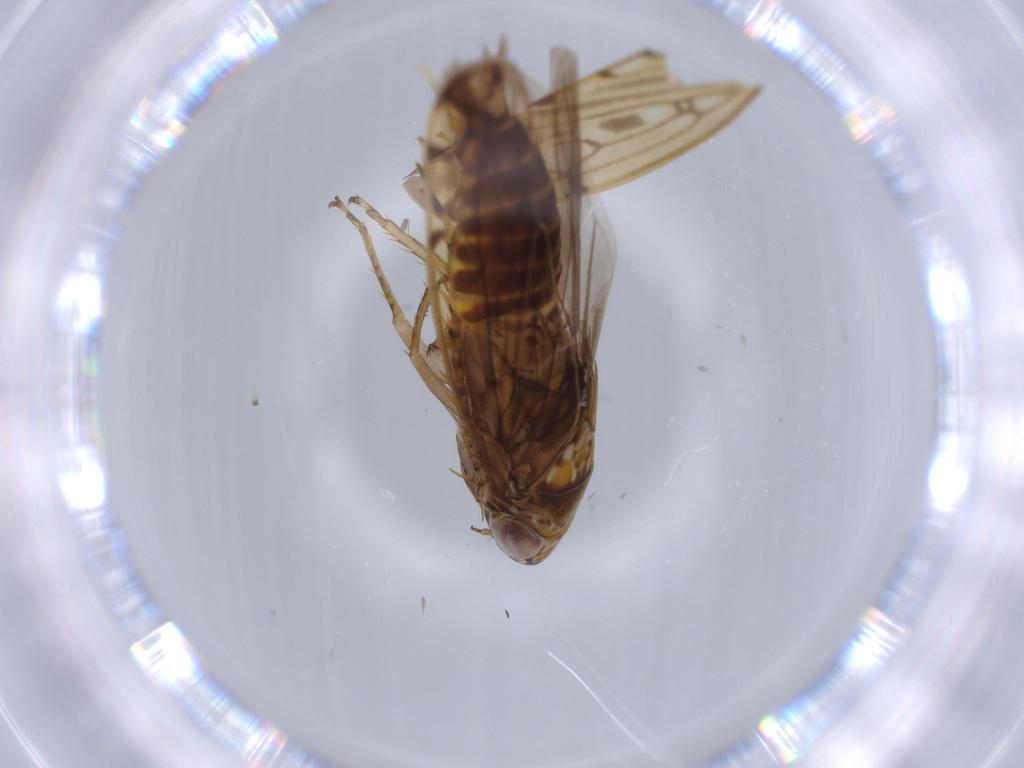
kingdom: Animalia
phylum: Arthropoda
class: Insecta
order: Hemiptera
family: Cicadellidae
